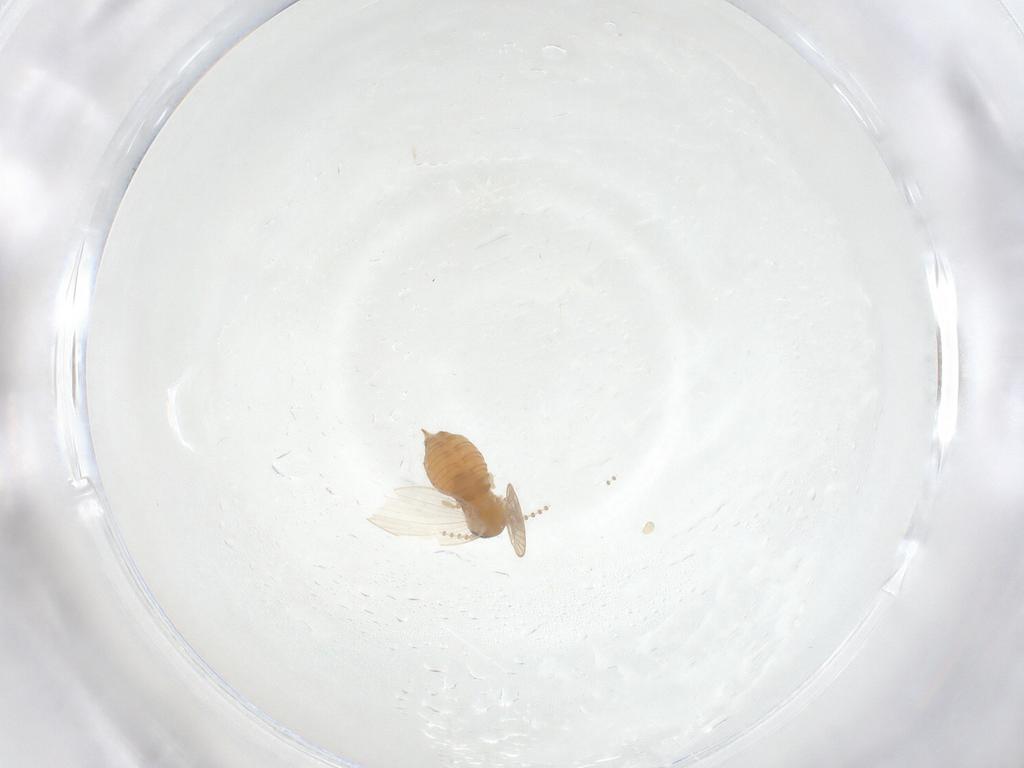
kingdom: Animalia
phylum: Arthropoda
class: Insecta
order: Diptera
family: Psychodidae
